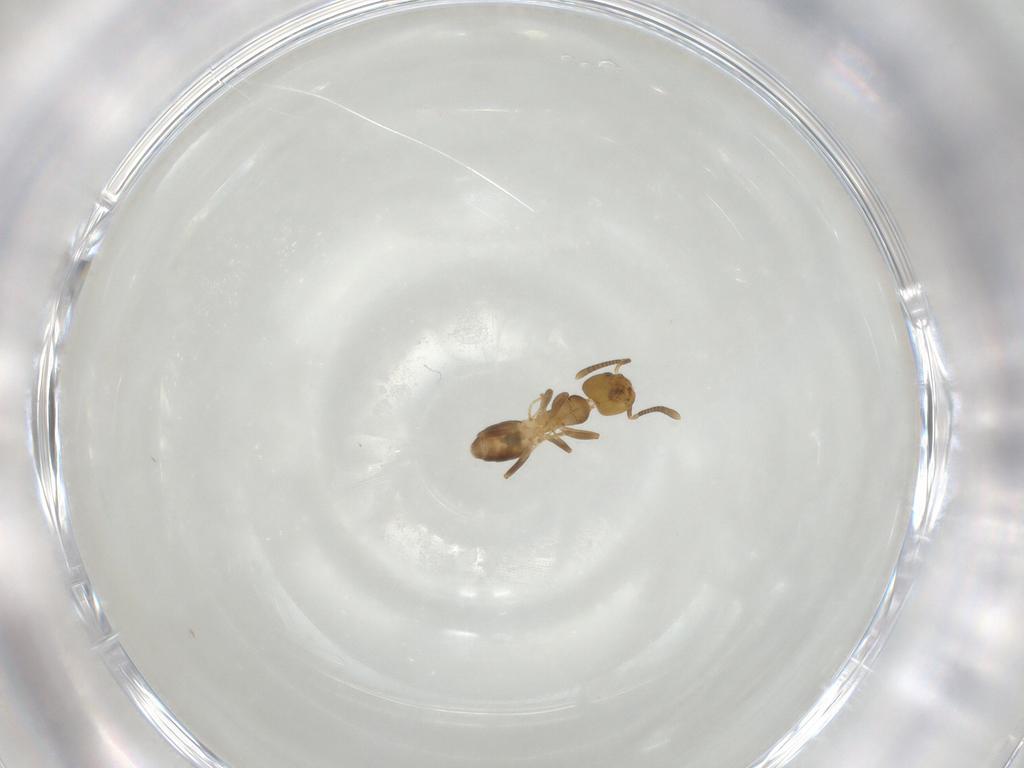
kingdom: Animalia
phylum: Arthropoda
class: Insecta
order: Hymenoptera
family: Formicidae
